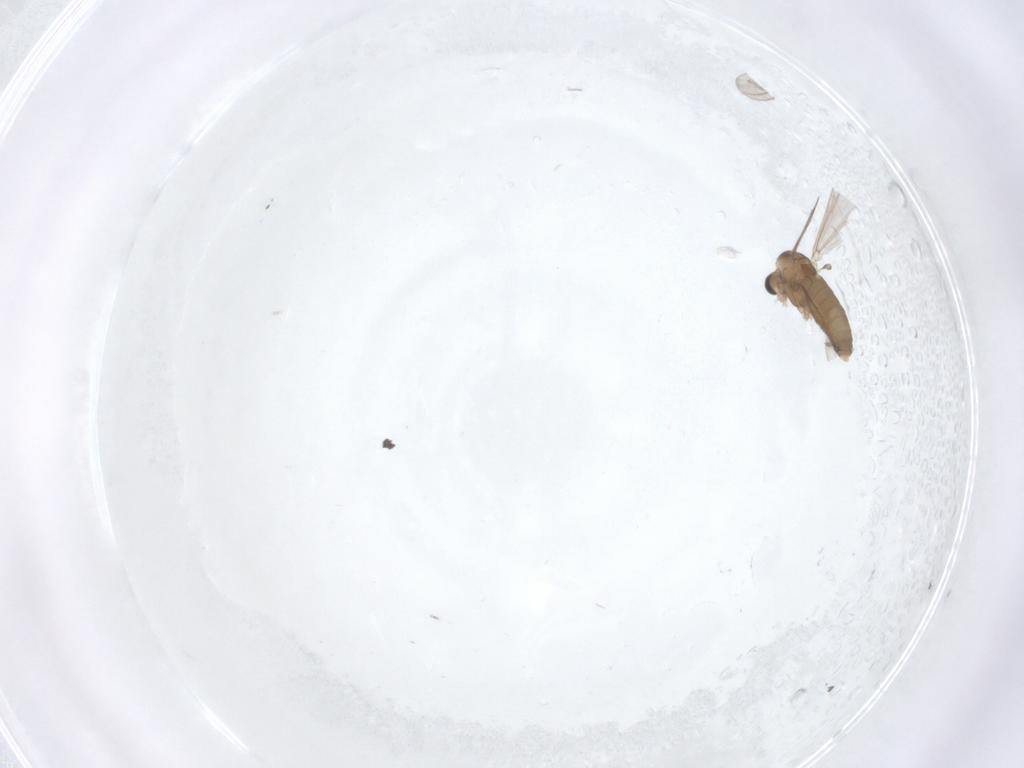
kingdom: Animalia
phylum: Arthropoda
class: Insecta
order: Diptera
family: Chironomidae
